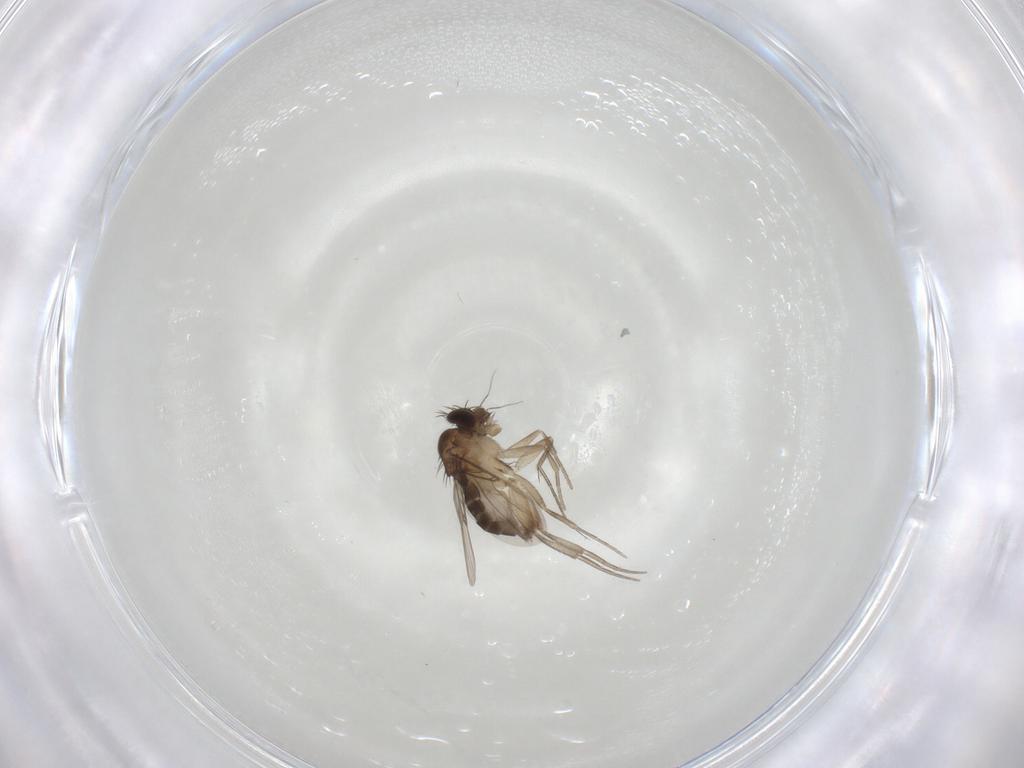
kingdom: Animalia
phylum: Arthropoda
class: Insecta
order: Diptera
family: Phoridae
